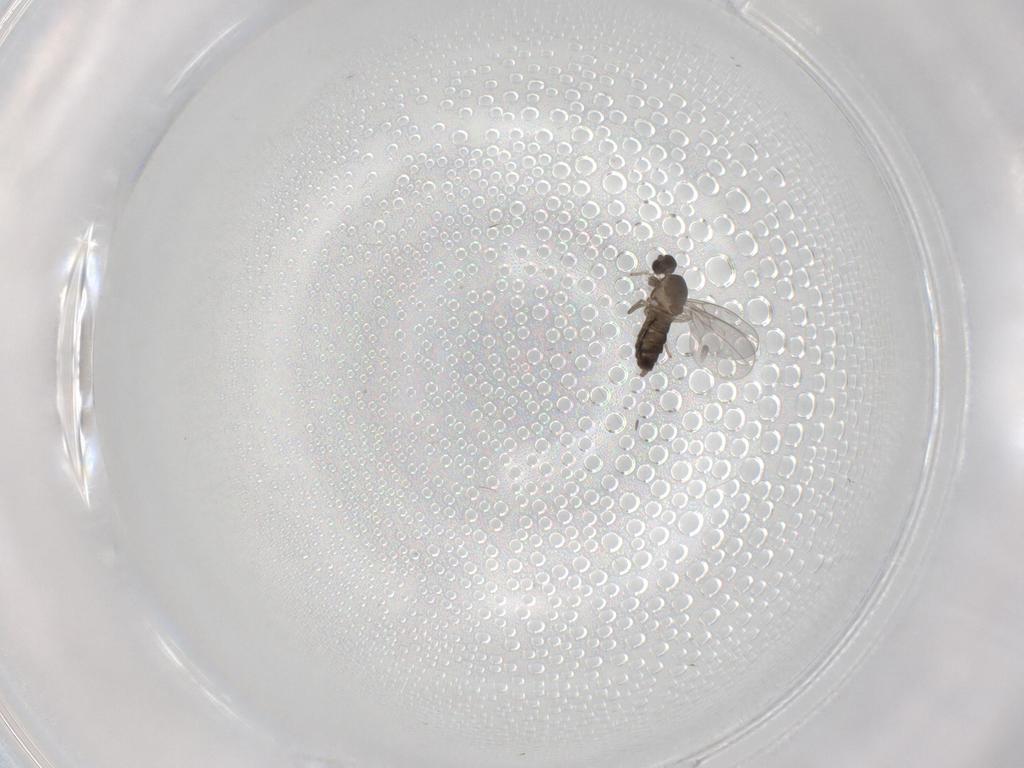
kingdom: Animalia
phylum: Arthropoda
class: Insecta
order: Diptera
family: Cecidomyiidae
